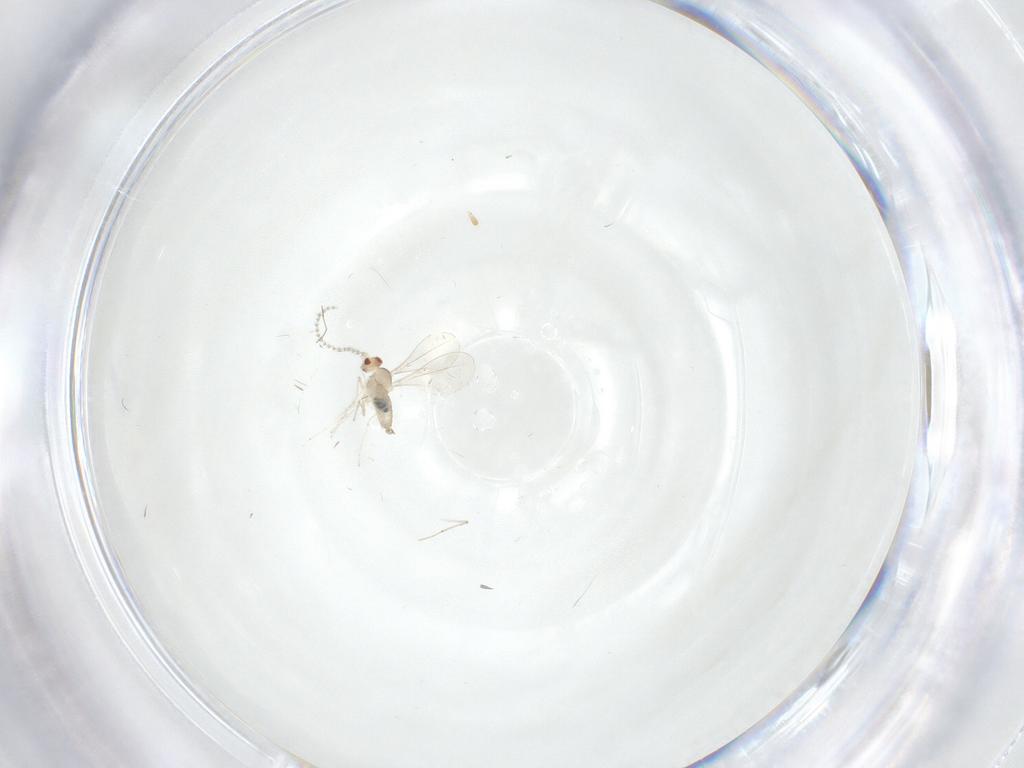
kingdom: Animalia
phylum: Arthropoda
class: Insecta
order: Diptera
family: Cecidomyiidae
